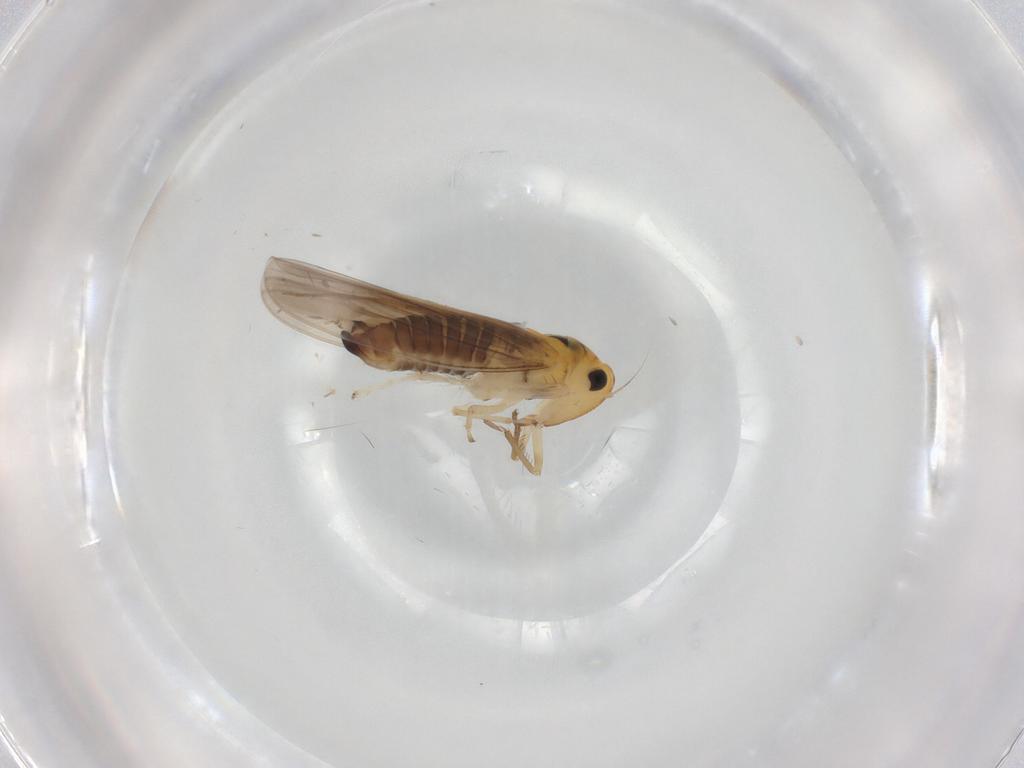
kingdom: Animalia
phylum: Arthropoda
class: Insecta
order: Hemiptera
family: Cicadellidae
